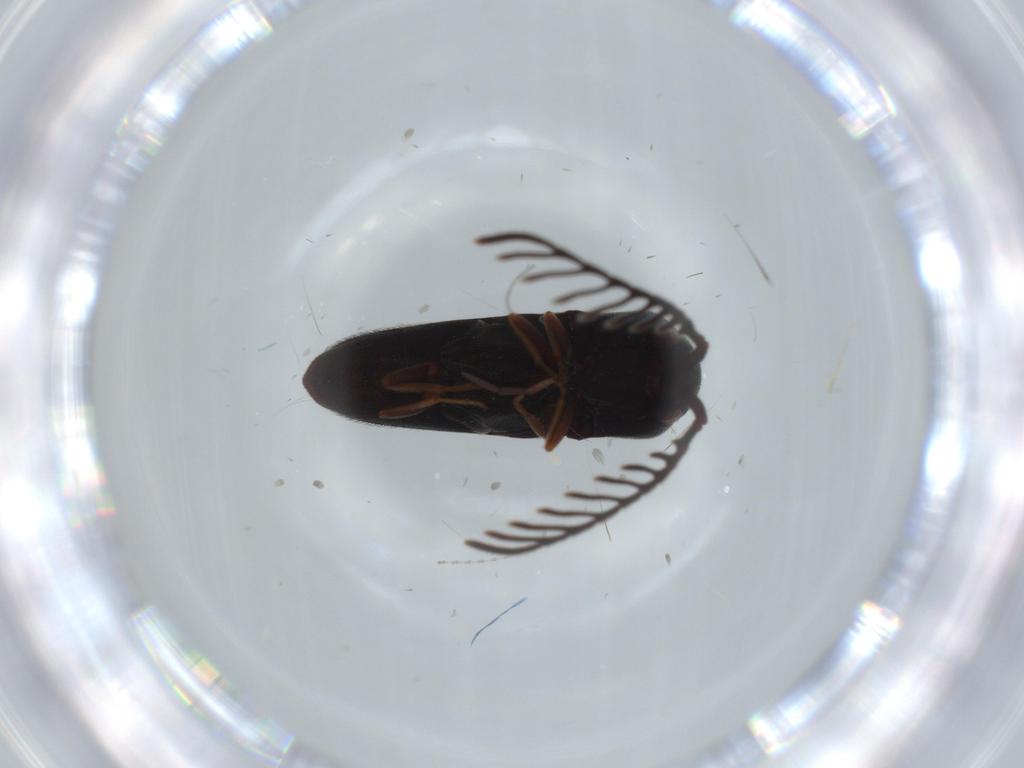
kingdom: Animalia
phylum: Arthropoda
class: Insecta
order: Coleoptera
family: Eucnemidae
